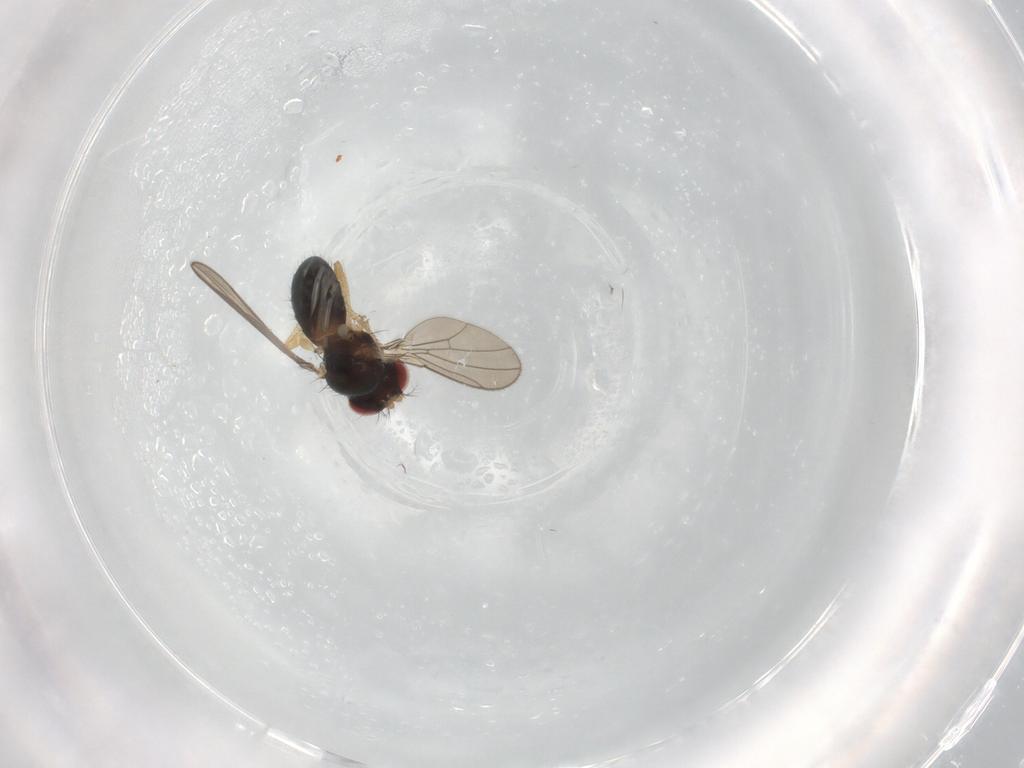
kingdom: Animalia
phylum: Arthropoda
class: Insecta
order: Diptera
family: Drosophilidae
